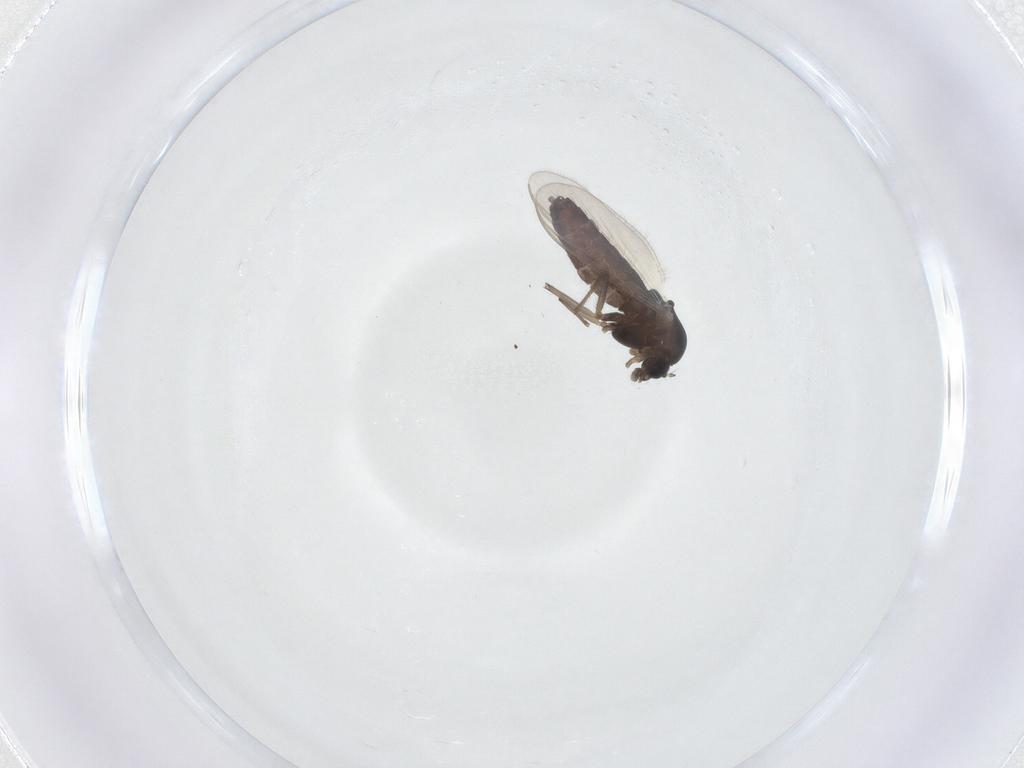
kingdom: Animalia
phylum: Arthropoda
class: Insecta
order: Diptera
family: Chironomidae
